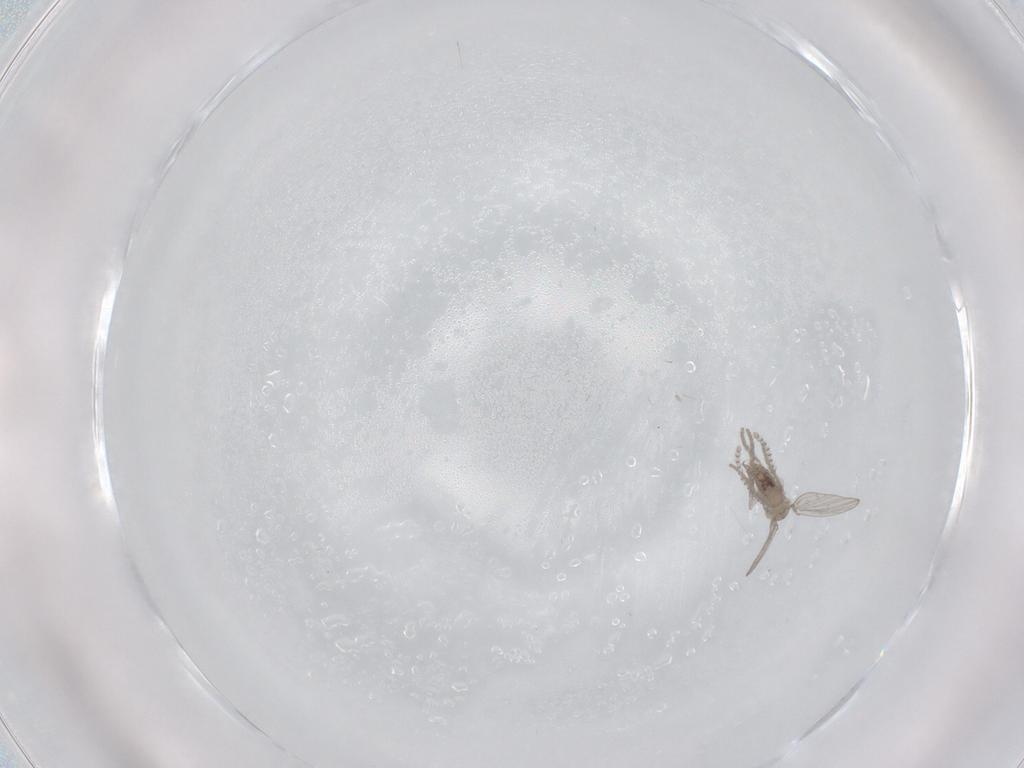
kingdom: Animalia
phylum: Arthropoda
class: Insecta
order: Diptera
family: Psychodidae
